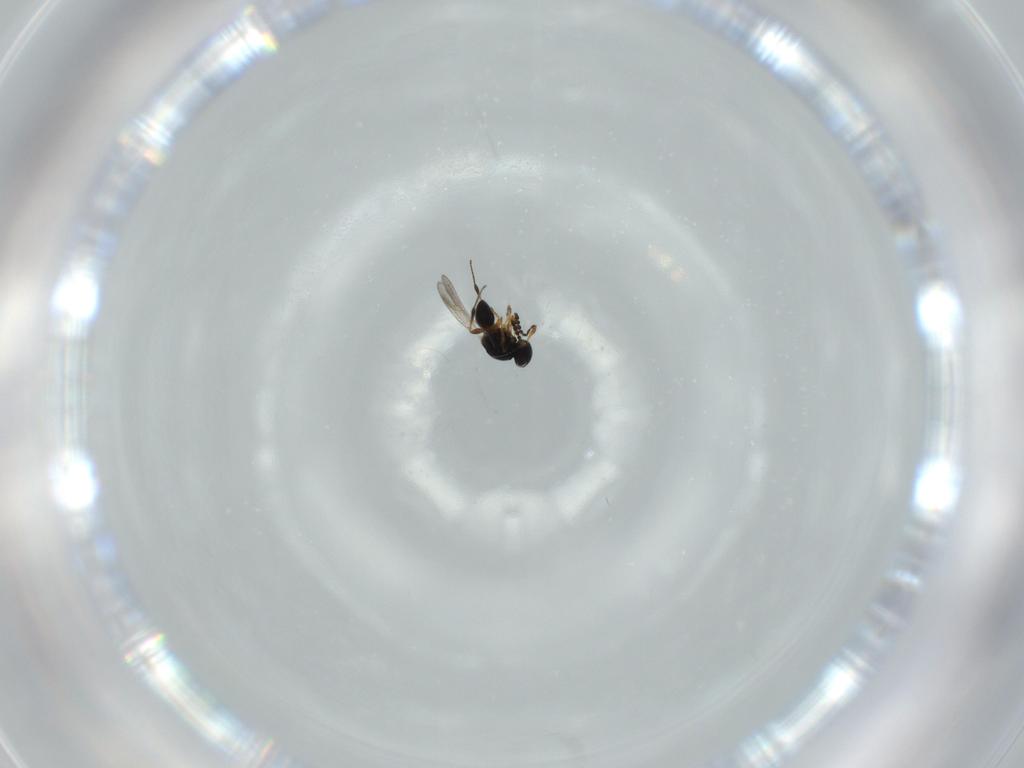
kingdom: Animalia
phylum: Arthropoda
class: Insecta
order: Hymenoptera
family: Platygastridae
